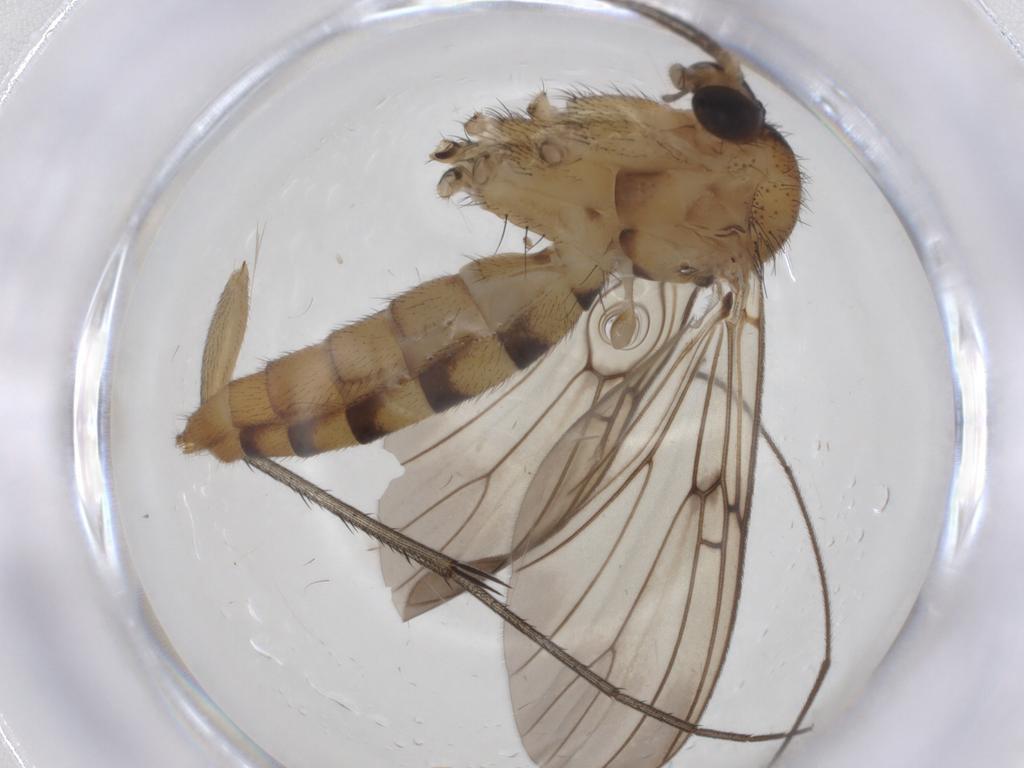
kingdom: Animalia
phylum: Arthropoda
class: Insecta
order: Diptera
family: Mycetophilidae
